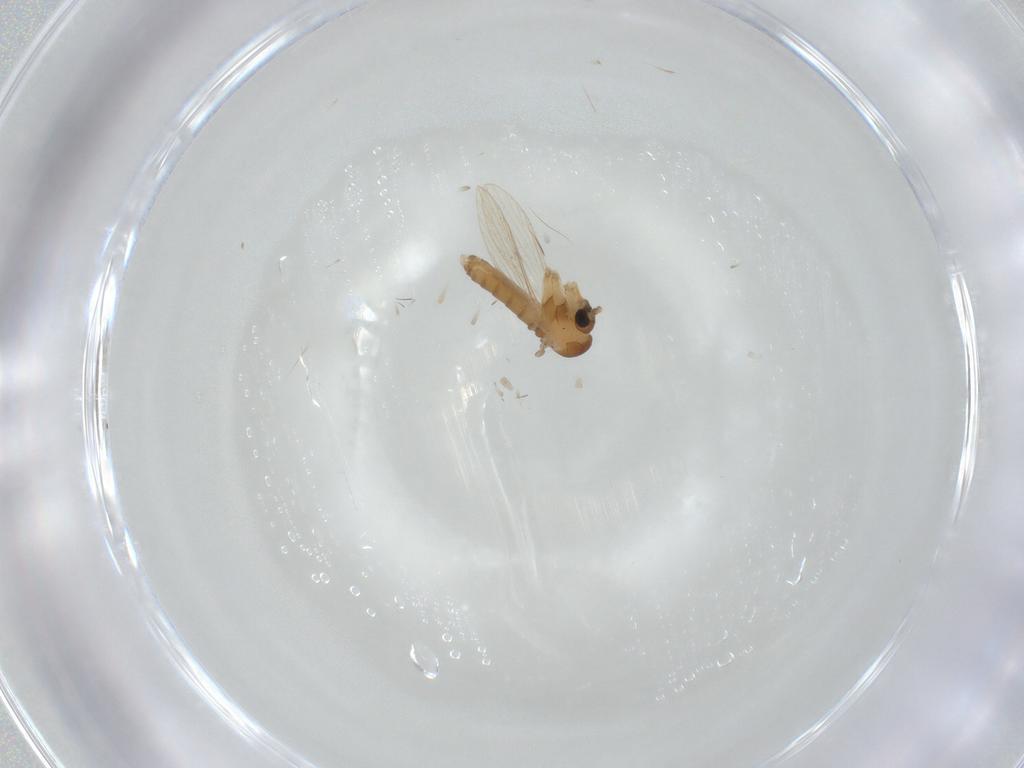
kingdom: Animalia
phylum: Arthropoda
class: Insecta
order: Diptera
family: Psychodidae
